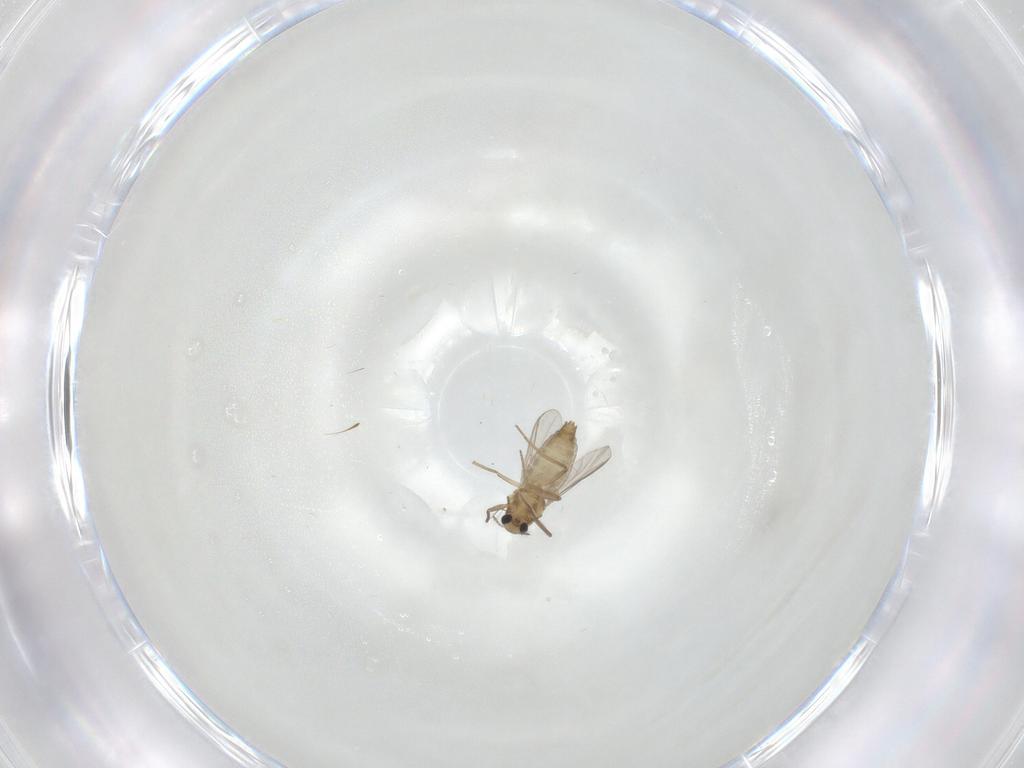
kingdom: Animalia
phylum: Arthropoda
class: Insecta
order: Diptera
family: Chironomidae
